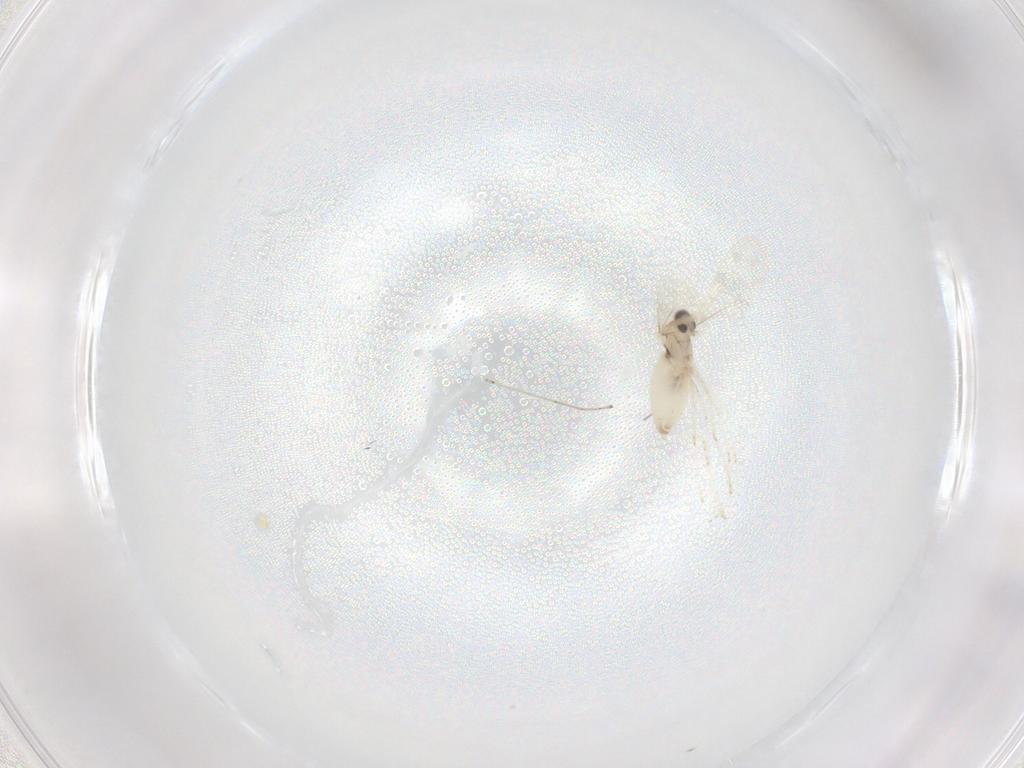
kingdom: Animalia
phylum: Arthropoda
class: Insecta
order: Diptera
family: Cecidomyiidae
